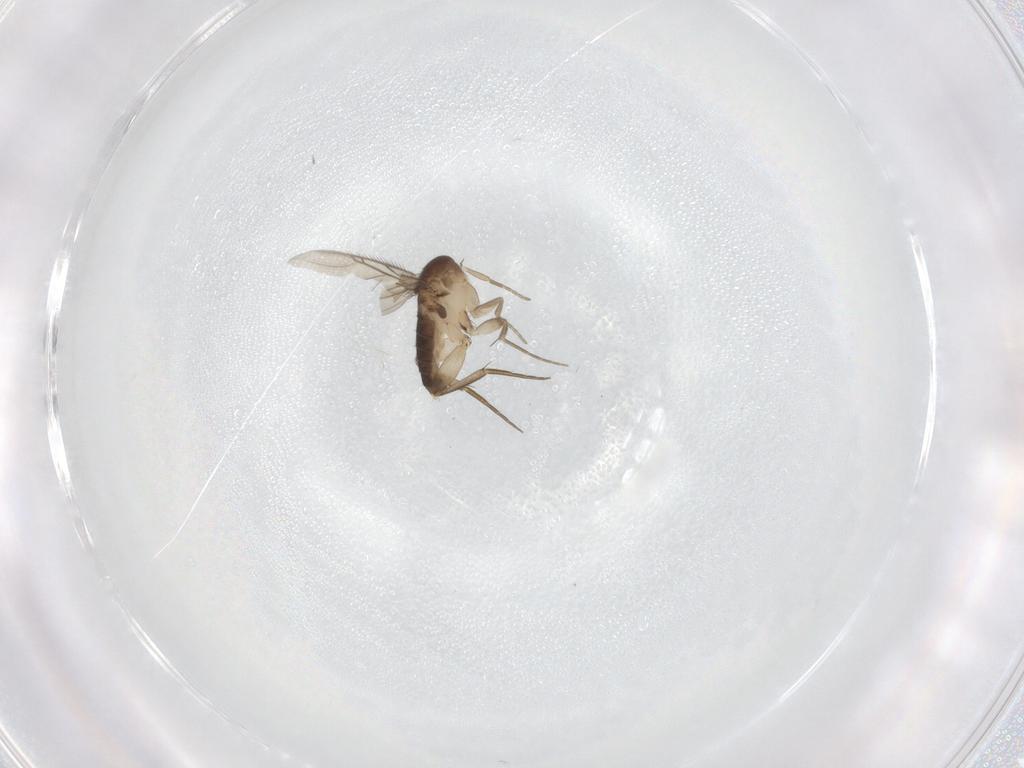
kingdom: Animalia
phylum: Arthropoda
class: Insecta
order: Diptera
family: Phoridae
